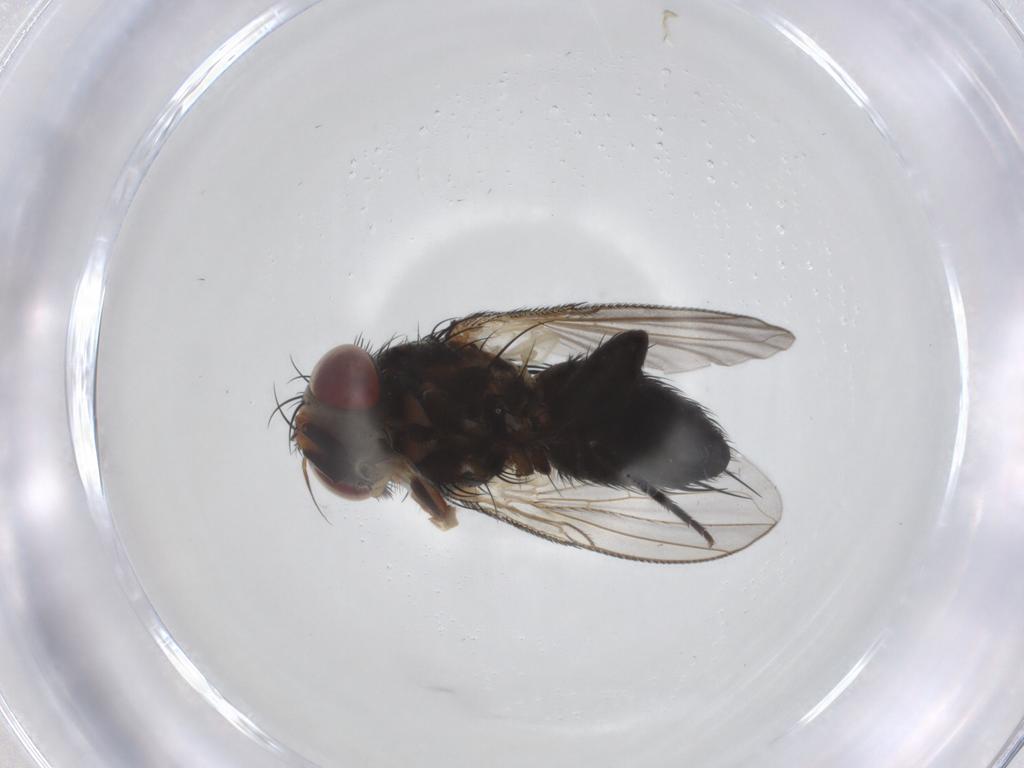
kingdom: Animalia
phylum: Arthropoda
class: Insecta
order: Diptera
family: Tachinidae
